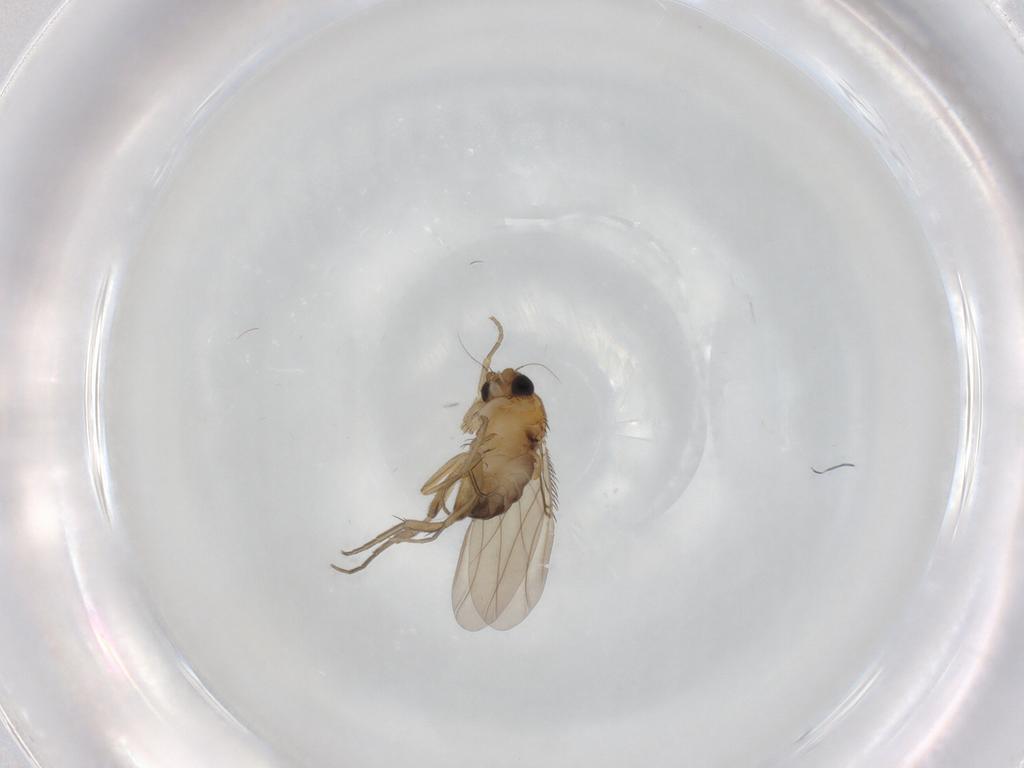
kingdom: Animalia
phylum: Arthropoda
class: Insecta
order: Diptera
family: Phoridae
